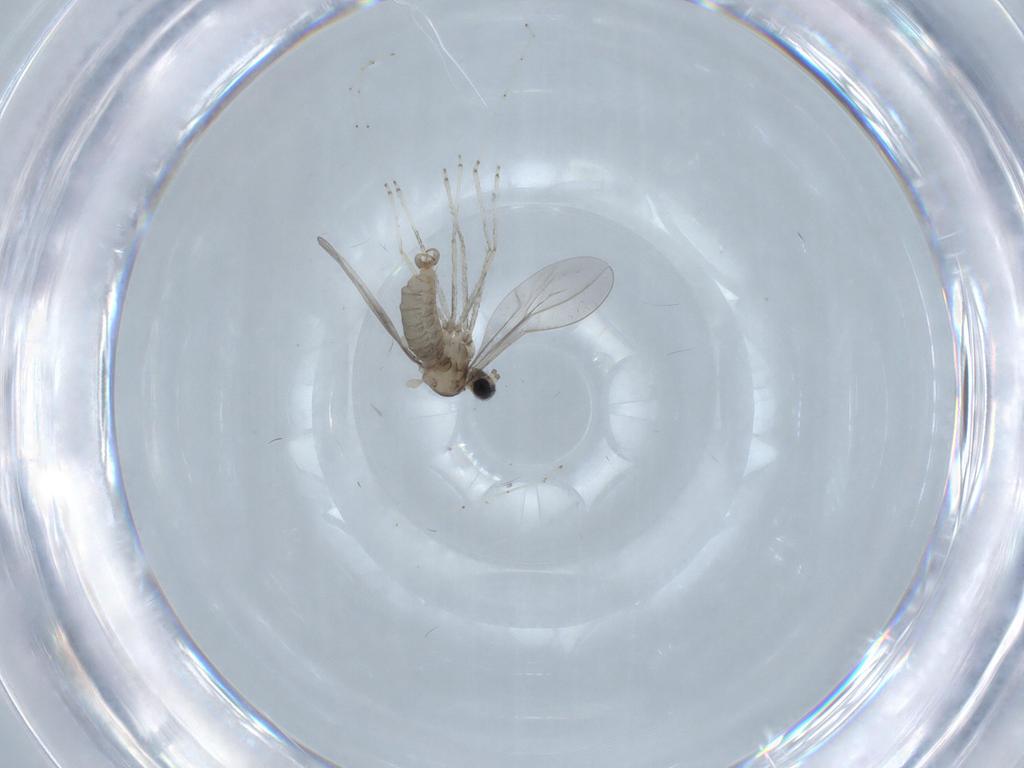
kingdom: Animalia
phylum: Arthropoda
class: Insecta
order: Diptera
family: Cecidomyiidae
